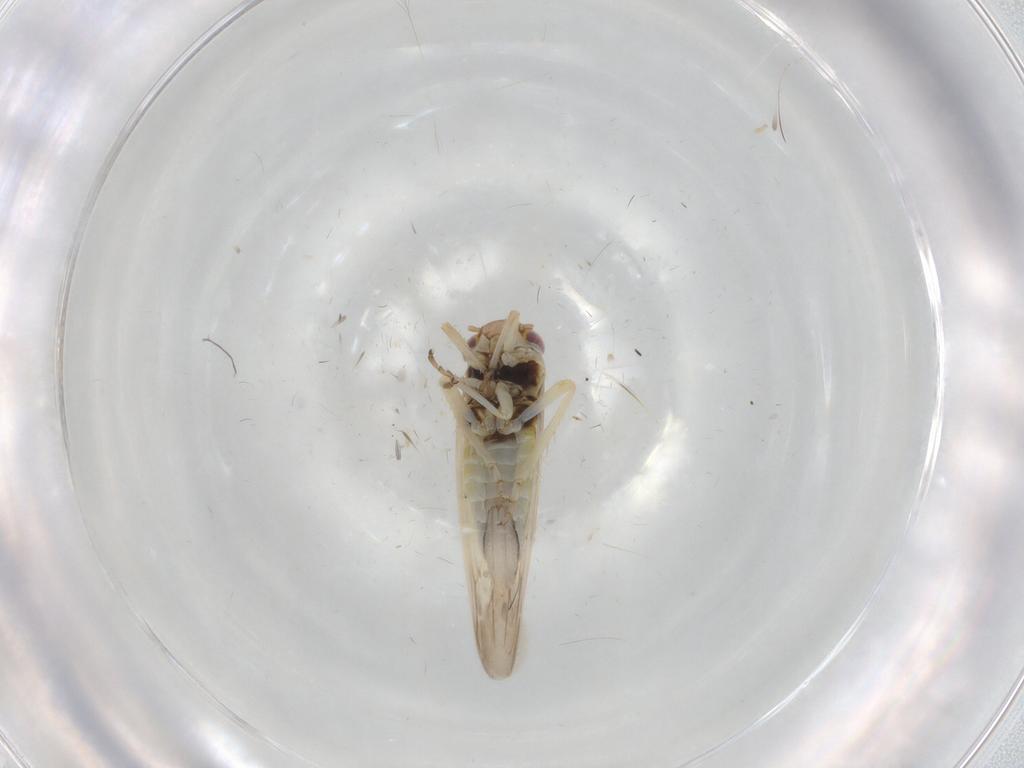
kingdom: Animalia
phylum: Arthropoda
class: Insecta
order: Hemiptera
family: Cicadellidae
